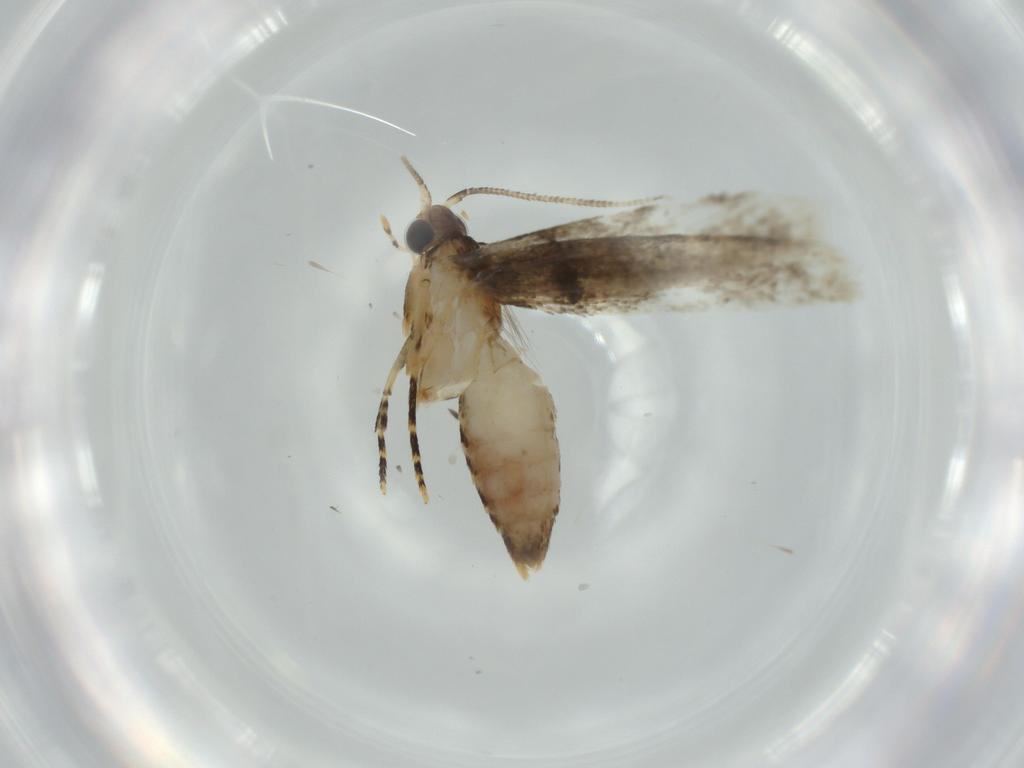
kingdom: Animalia
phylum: Arthropoda
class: Insecta
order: Lepidoptera
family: Tineidae
